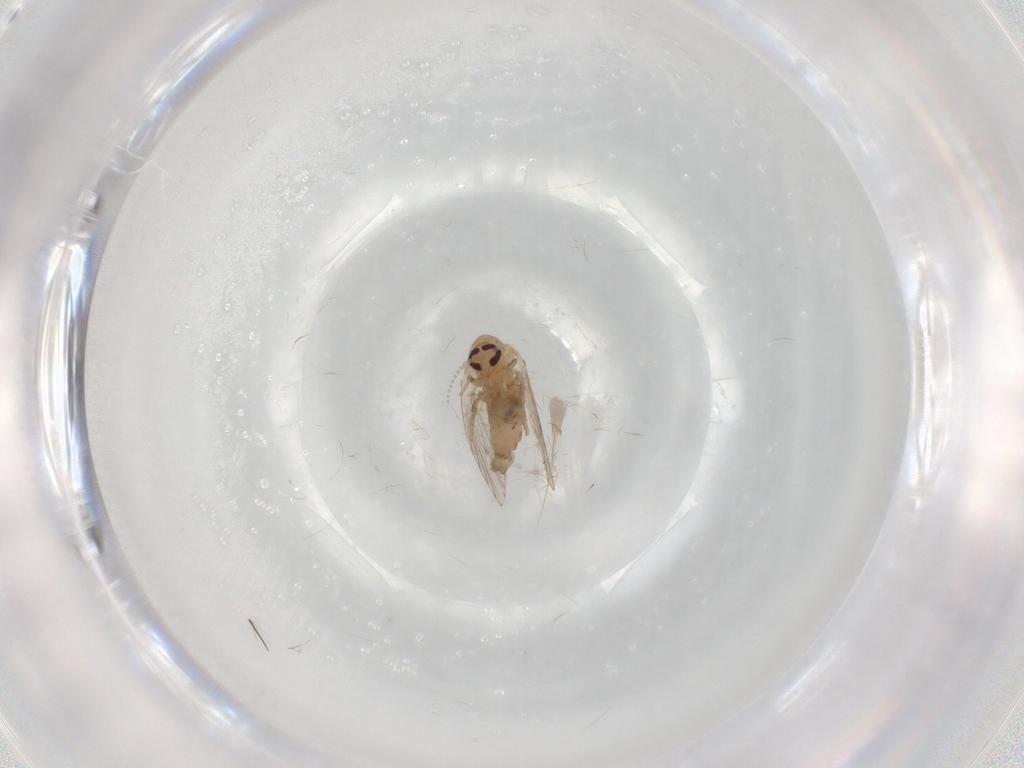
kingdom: Animalia
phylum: Arthropoda
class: Insecta
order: Diptera
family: Psychodidae
